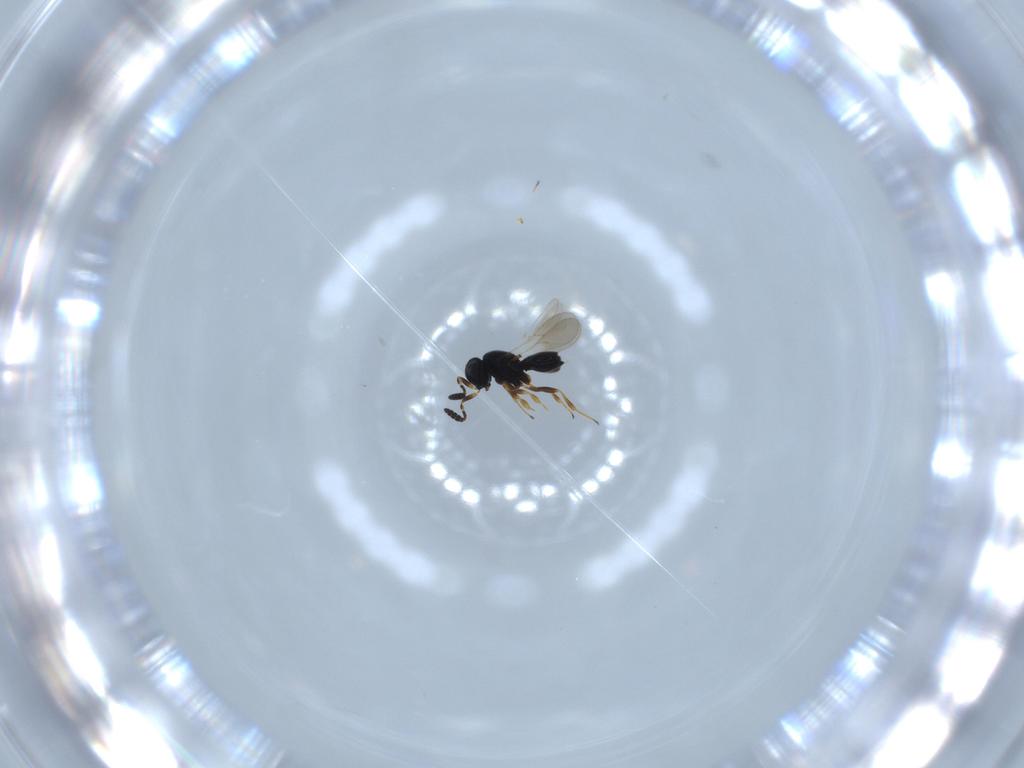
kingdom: Animalia
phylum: Arthropoda
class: Insecta
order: Hymenoptera
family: Scelionidae
